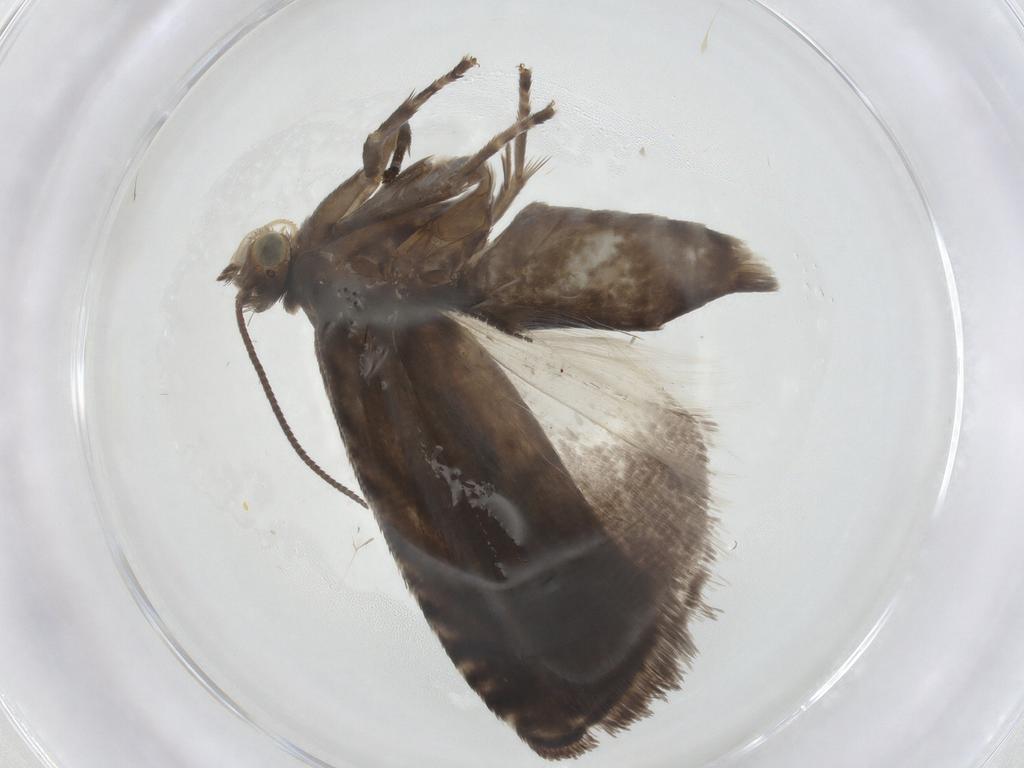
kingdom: Animalia
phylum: Arthropoda
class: Insecta
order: Lepidoptera
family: Tortricidae
